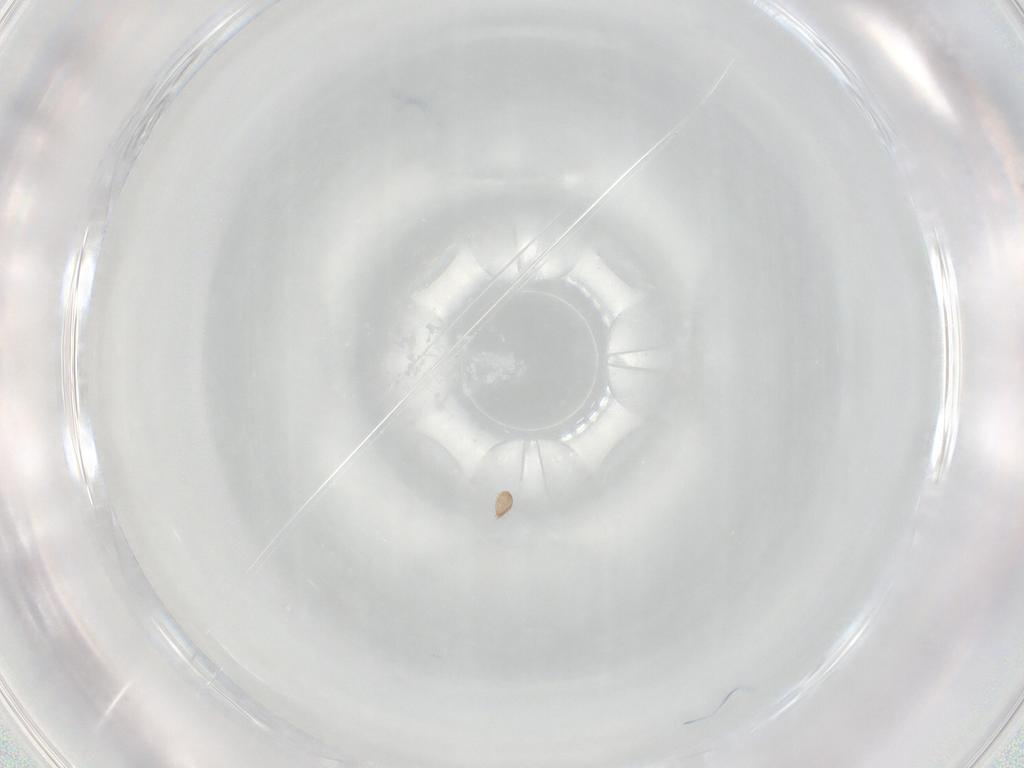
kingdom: Animalia
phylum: Arthropoda
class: Arachnida
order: Sarcoptiformes
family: Acaridae
